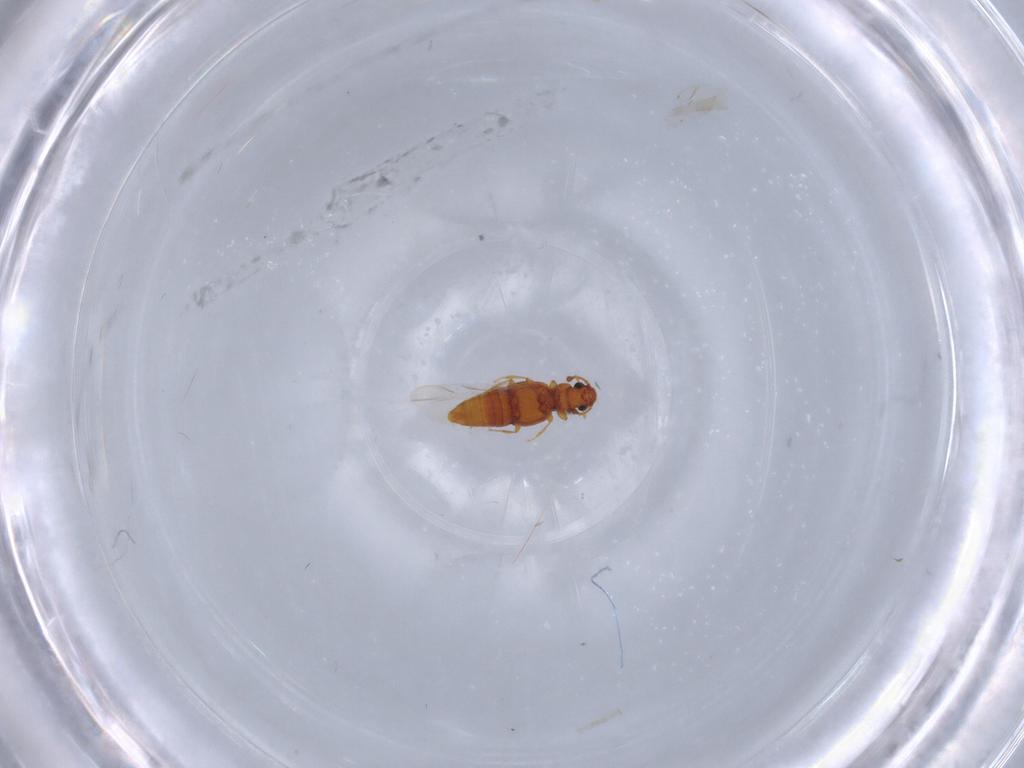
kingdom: Animalia
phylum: Arthropoda
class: Insecta
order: Coleoptera
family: Staphylinidae
